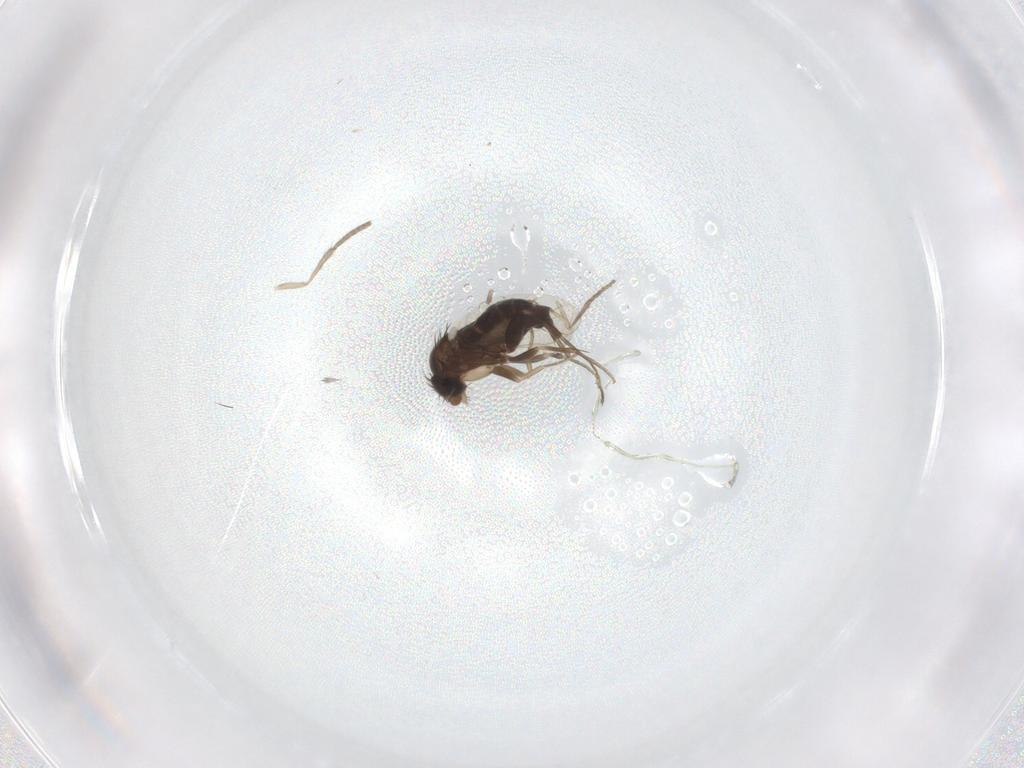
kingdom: Animalia
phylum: Arthropoda
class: Insecta
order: Diptera
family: Phoridae
